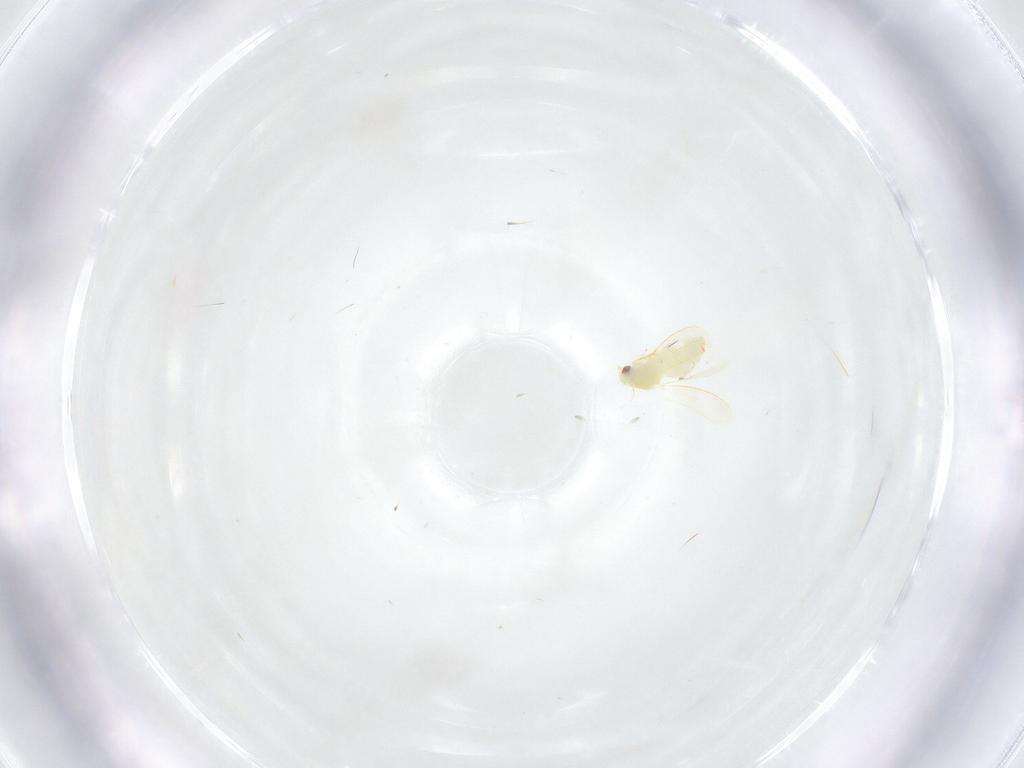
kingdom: Animalia
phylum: Arthropoda
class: Insecta
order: Hemiptera
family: Aleyrodidae
